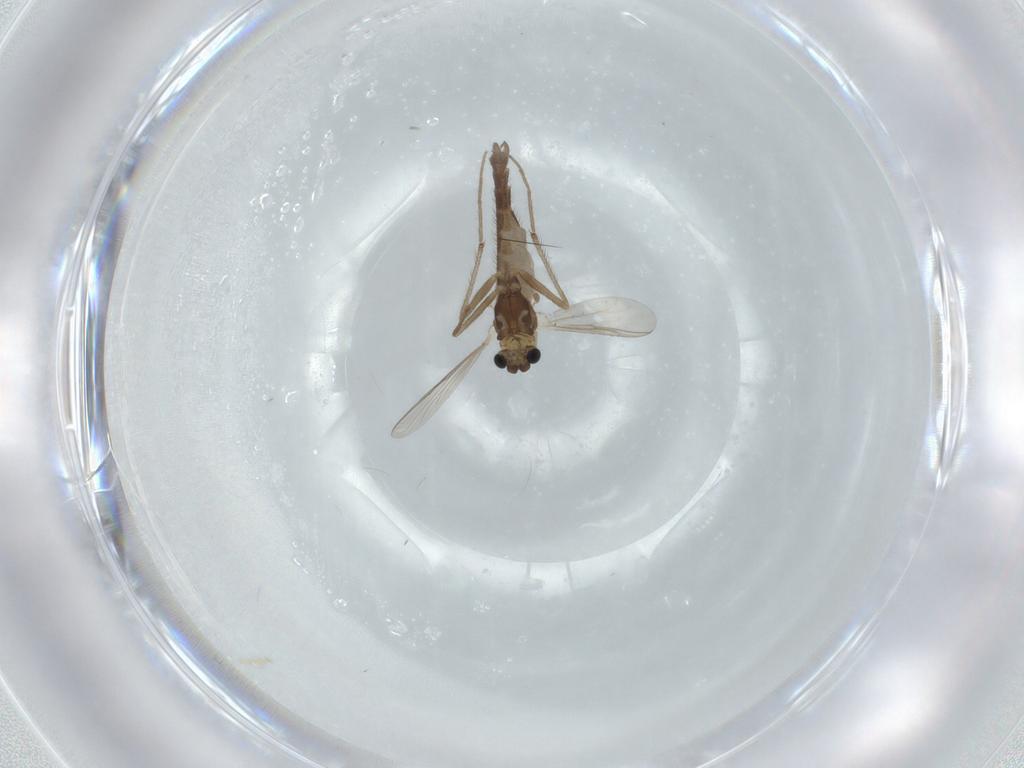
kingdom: Animalia
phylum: Arthropoda
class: Insecta
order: Diptera
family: Chironomidae
